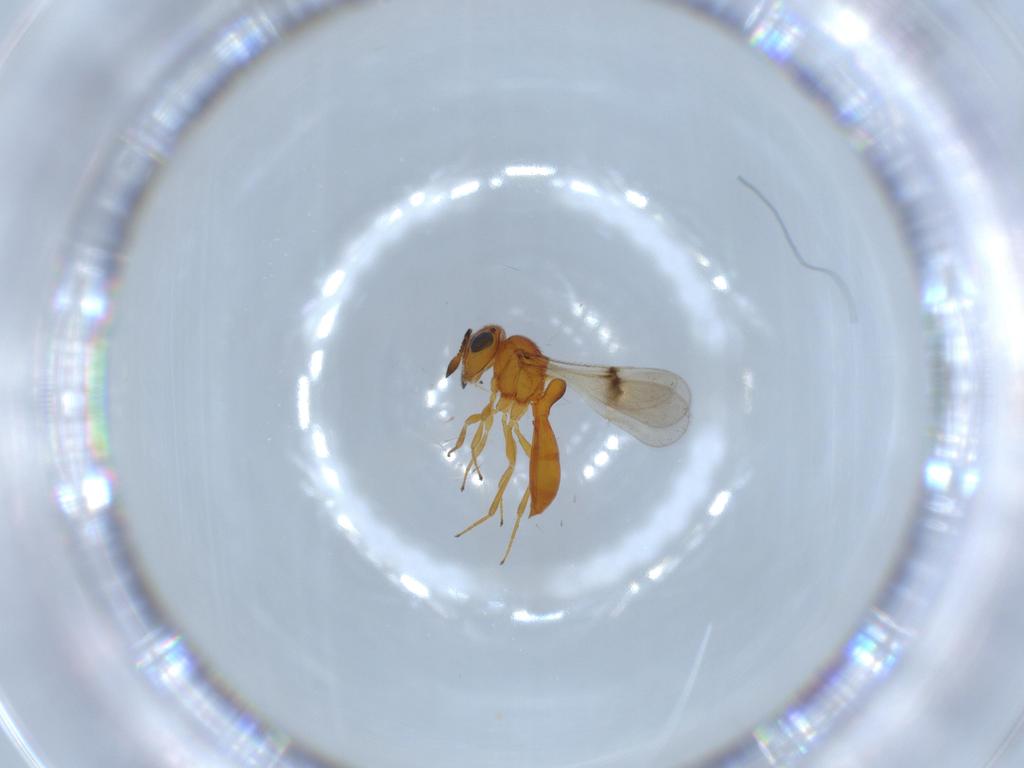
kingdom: Animalia
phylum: Arthropoda
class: Insecta
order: Hymenoptera
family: Scelionidae
